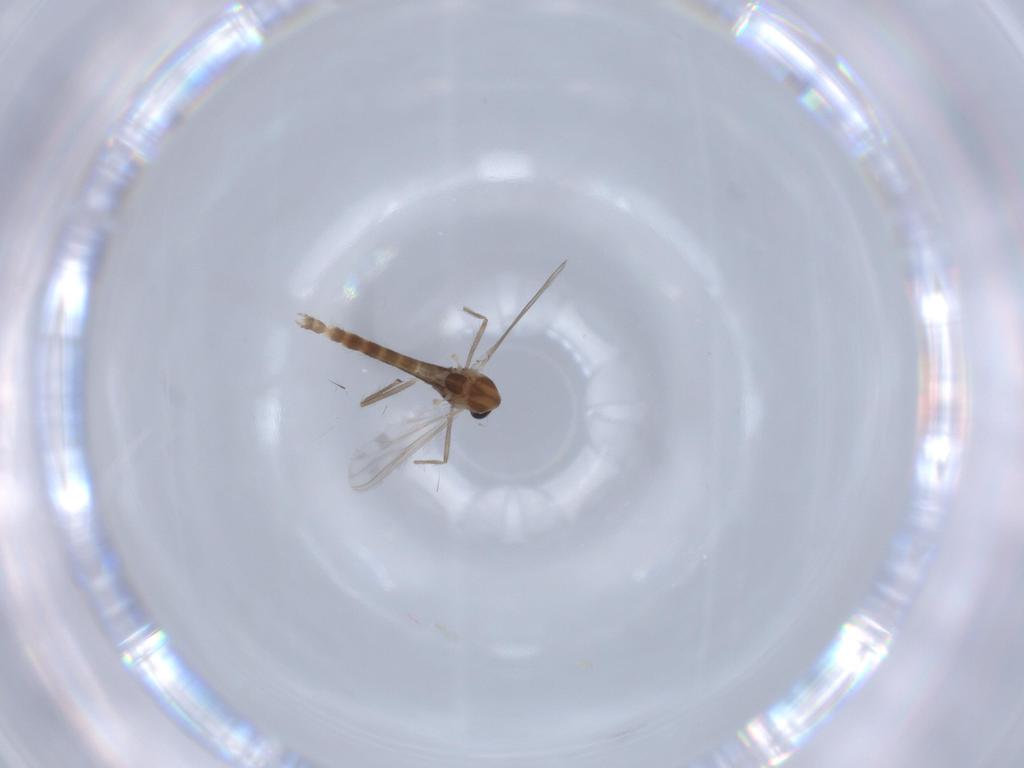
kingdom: Animalia
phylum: Arthropoda
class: Insecta
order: Diptera
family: Chironomidae
